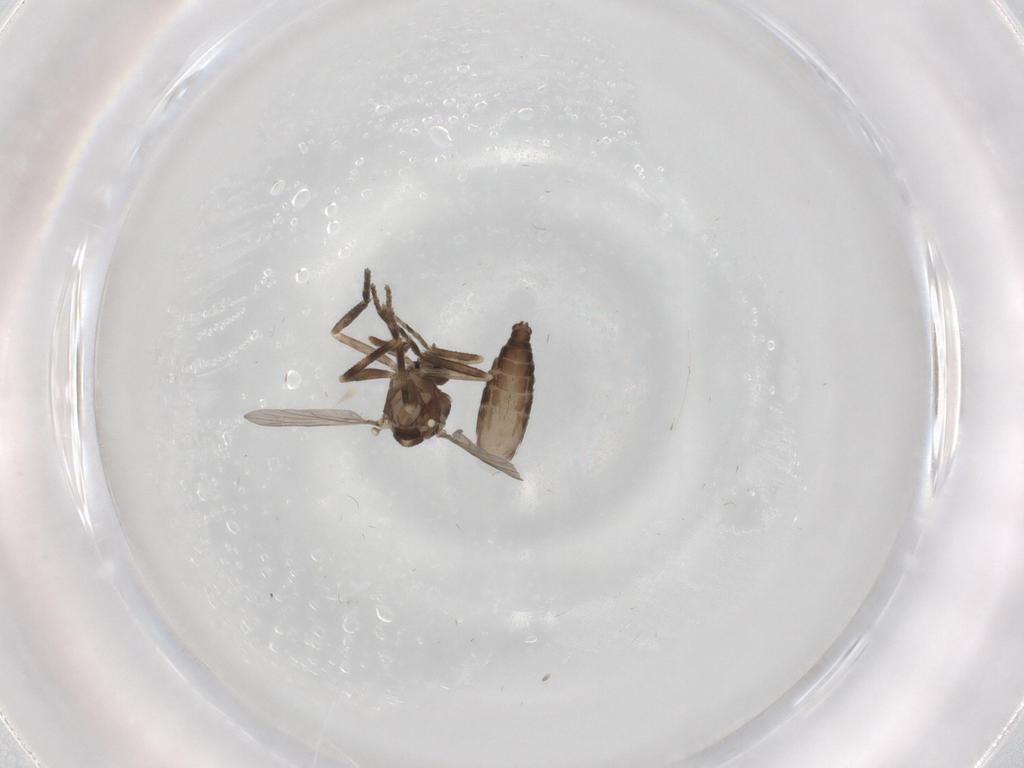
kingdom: Animalia
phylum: Arthropoda
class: Insecta
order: Diptera
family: Ceratopogonidae
